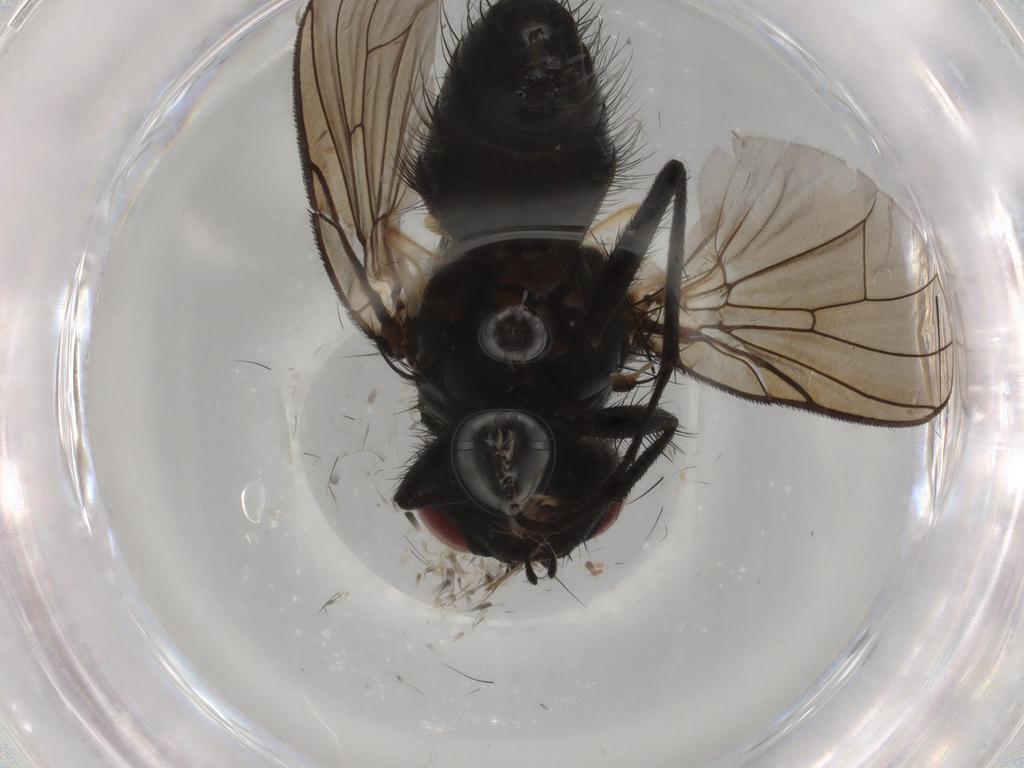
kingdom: Animalia
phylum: Arthropoda
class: Insecta
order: Diptera
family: Muscidae
